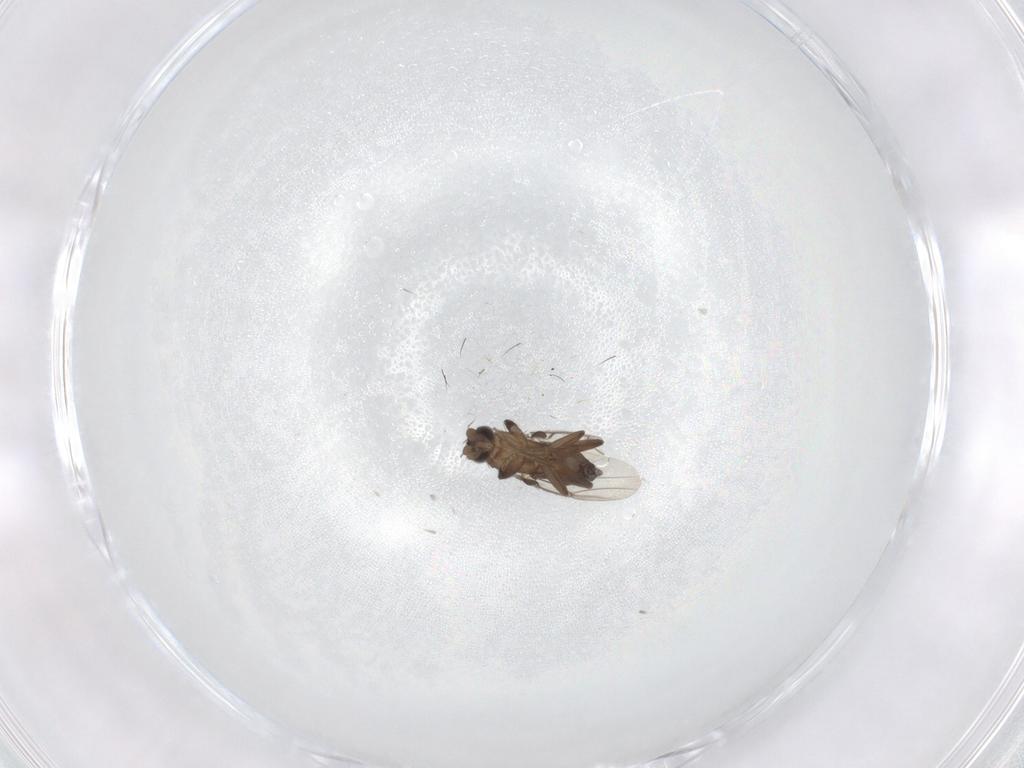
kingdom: Animalia
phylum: Arthropoda
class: Insecta
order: Diptera
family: Phoridae
